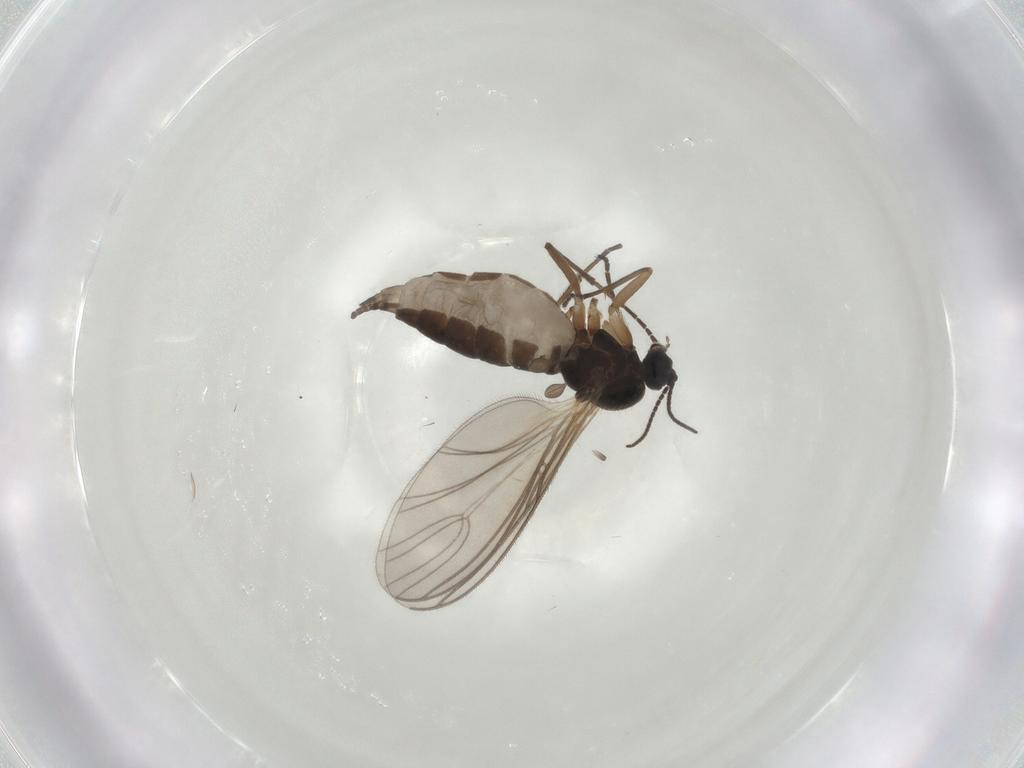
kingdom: Animalia
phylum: Arthropoda
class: Insecta
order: Diptera
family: Sciaridae
